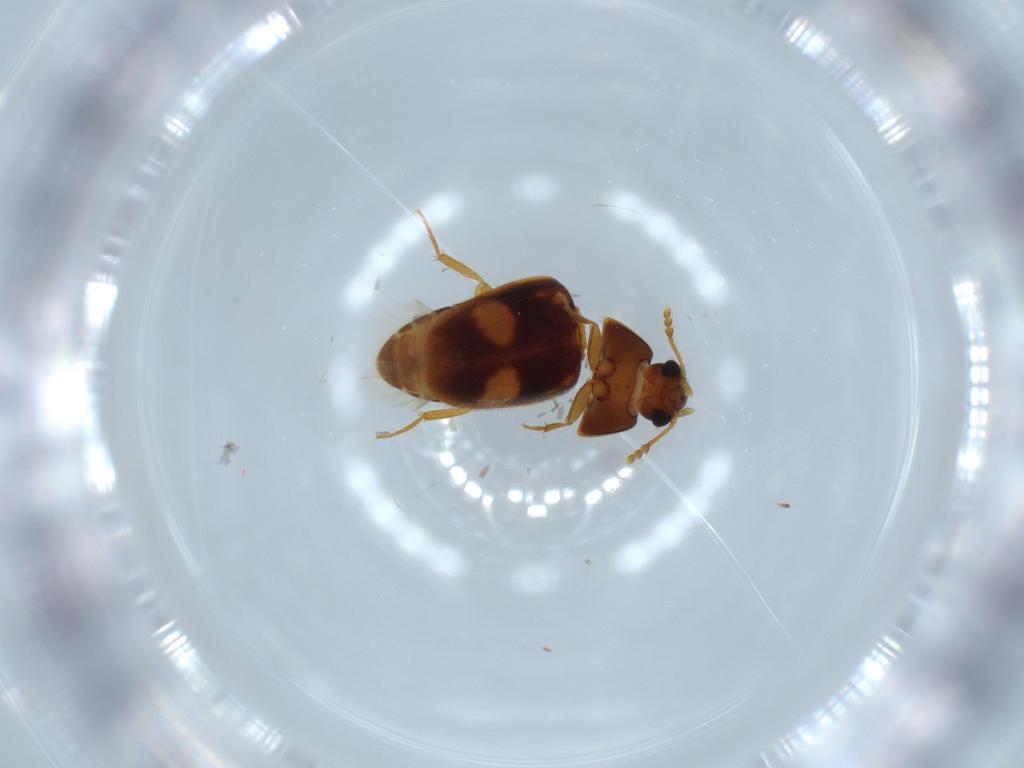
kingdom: Animalia
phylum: Arthropoda
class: Insecta
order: Coleoptera
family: Mycetophagidae
